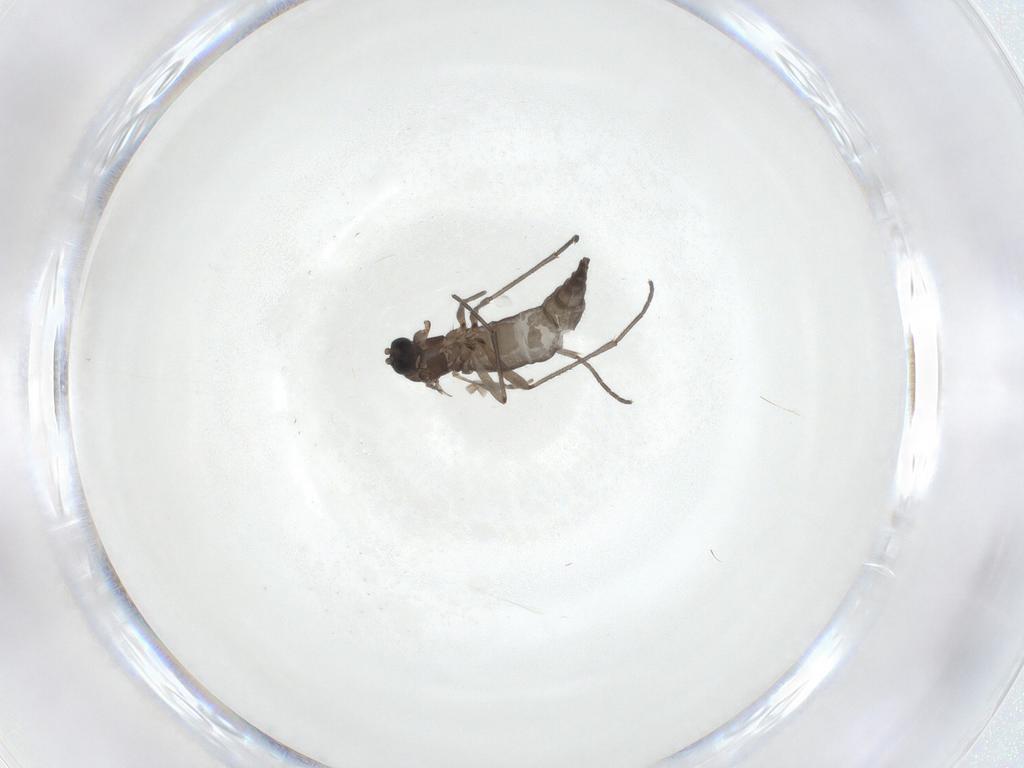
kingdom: Animalia
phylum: Arthropoda
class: Insecta
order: Diptera
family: Sciaridae
